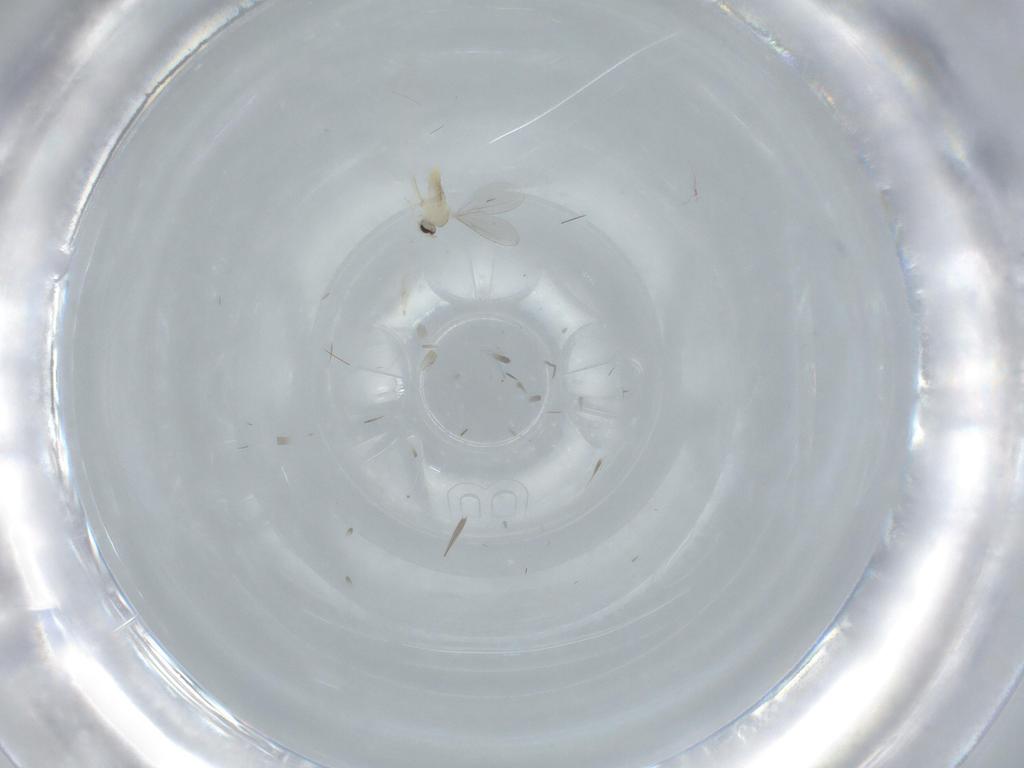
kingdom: Animalia
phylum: Arthropoda
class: Insecta
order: Diptera
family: Cecidomyiidae
